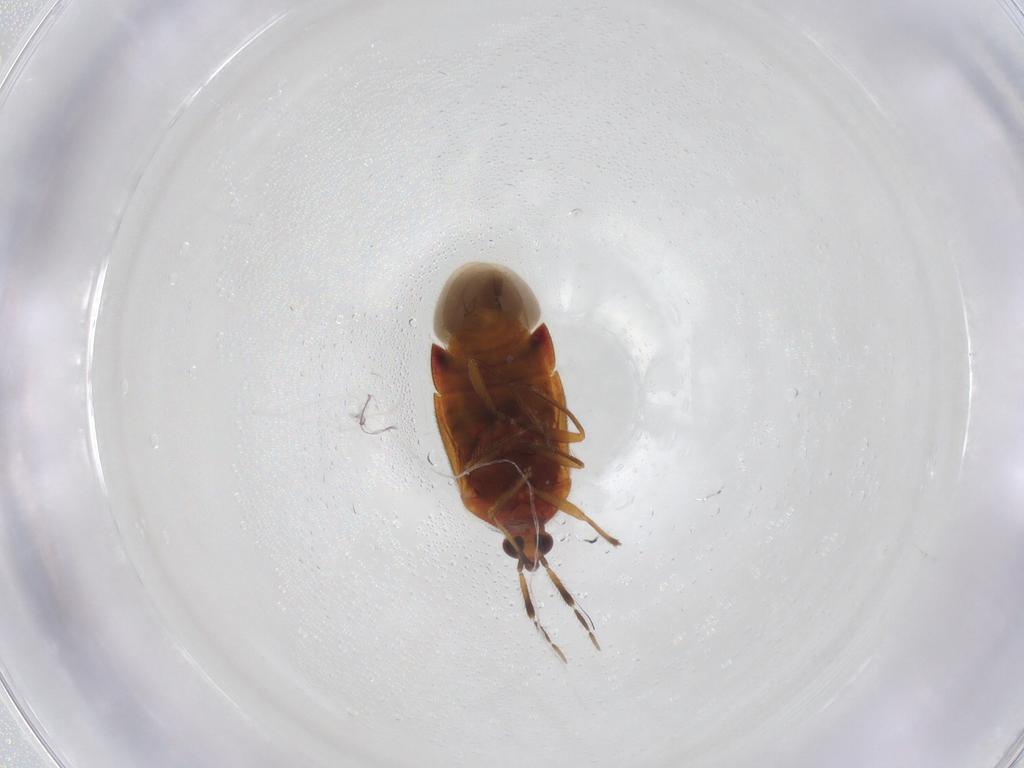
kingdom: Animalia
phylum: Arthropoda
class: Insecta
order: Hemiptera
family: Anthocoridae
